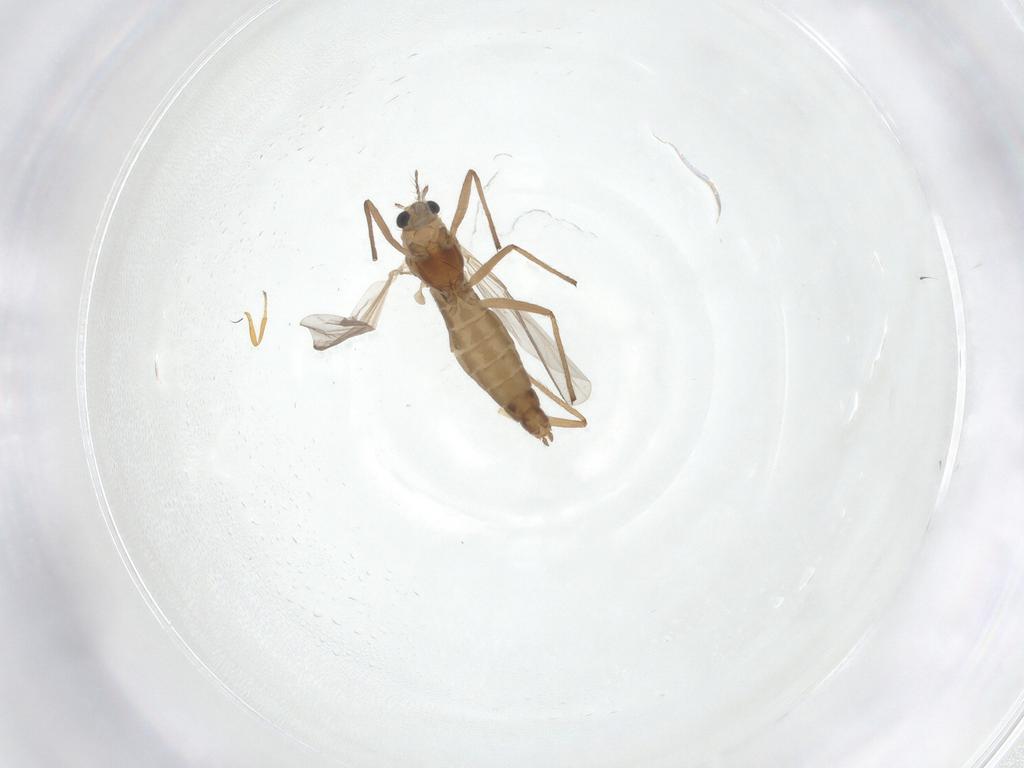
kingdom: Animalia
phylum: Arthropoda
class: Insecta
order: Diptera
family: Chironomidae
